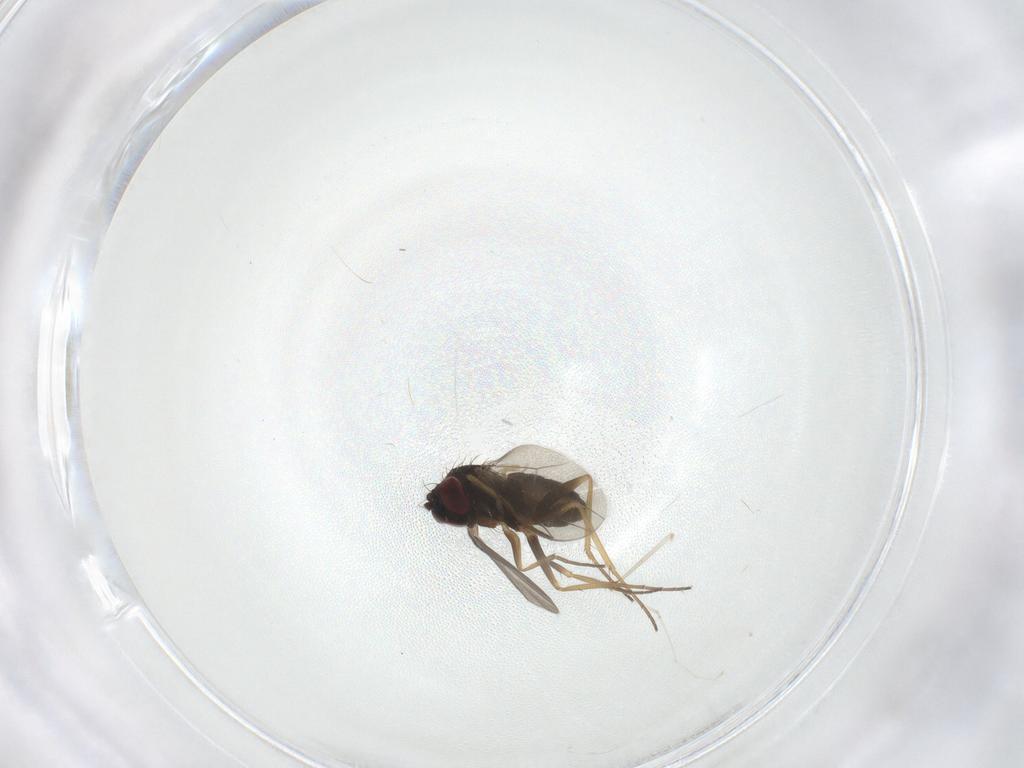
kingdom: Animalia
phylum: Arthropoda
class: Insecta
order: Diptera
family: Dolichopodidae
